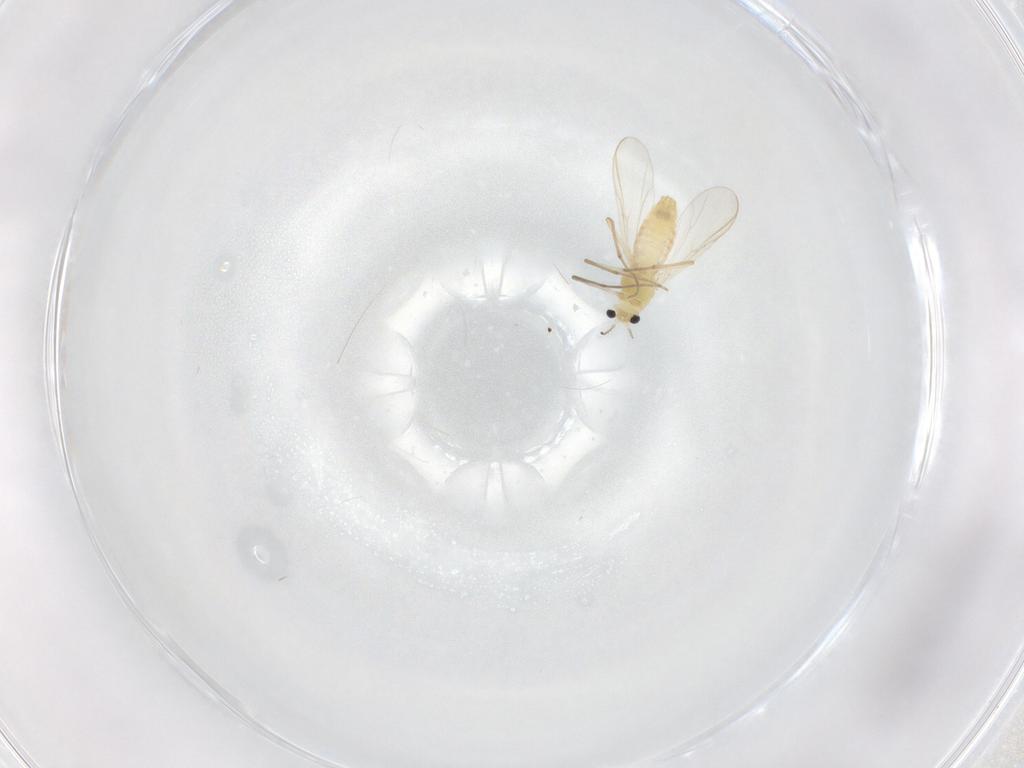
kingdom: Animalia
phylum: Arthropoda
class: Insecta
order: Diptera
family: Chironomidae
